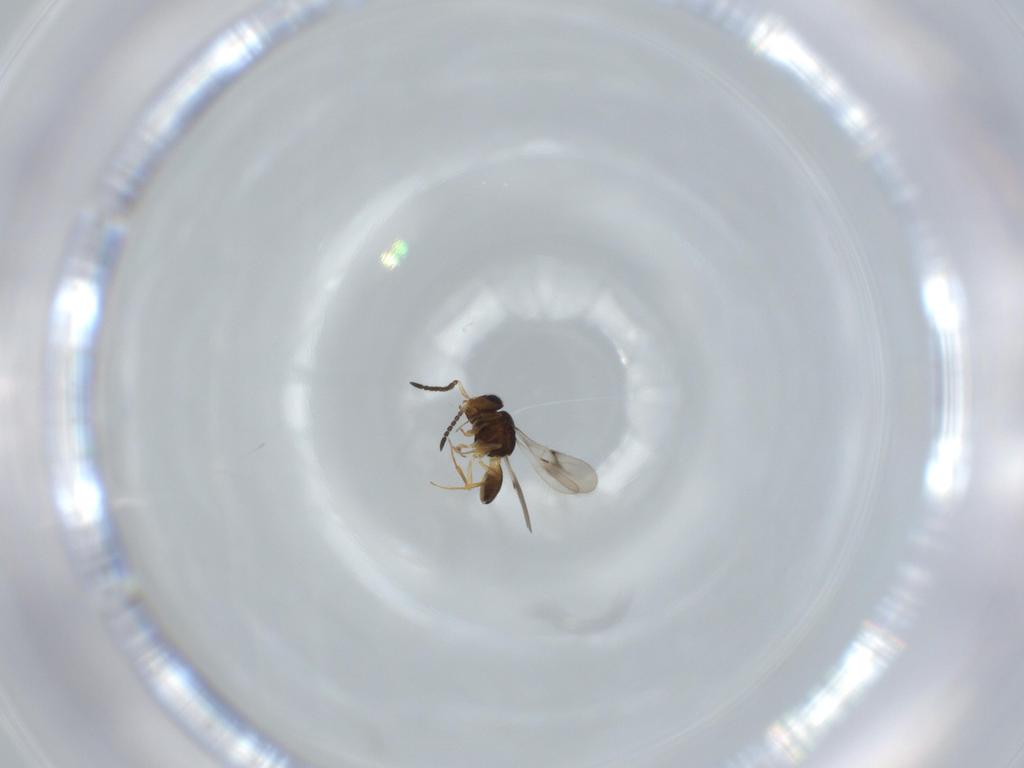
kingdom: Animalia
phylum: Arthropoda
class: Arachnida
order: Araneae
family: Pholcidae
